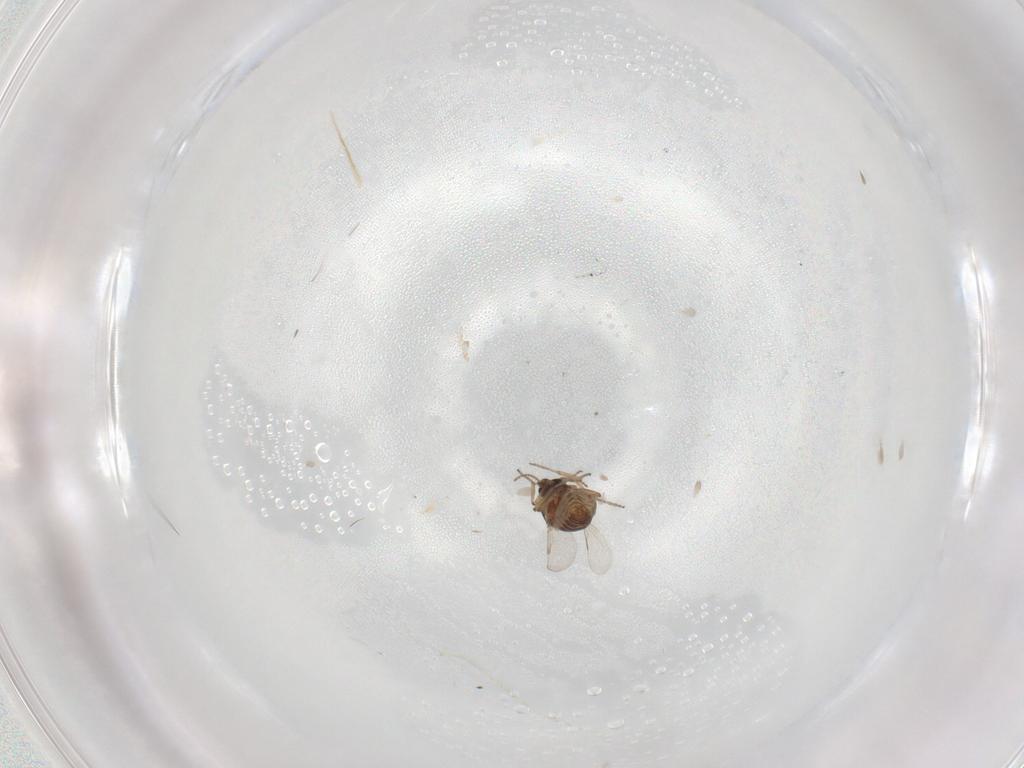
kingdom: Animalia
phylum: Arthropoda
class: Insecta
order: Diptera
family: Ceratopogonidae
